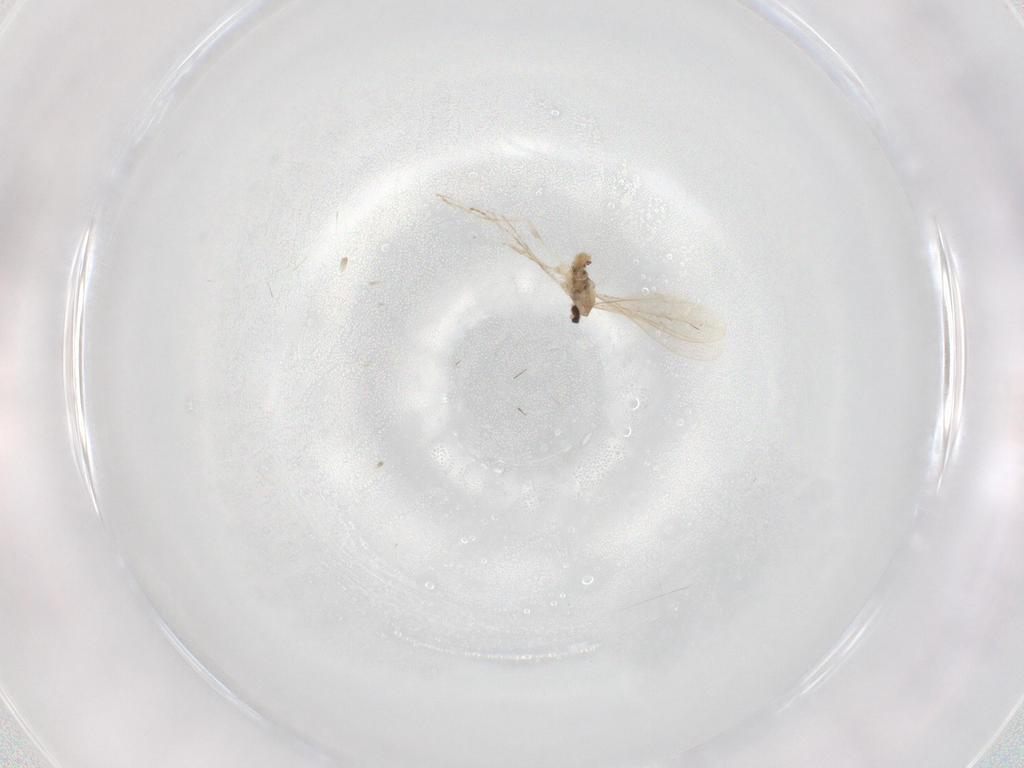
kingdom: Animalia
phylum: Arthropoda
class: Insecta
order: Diptera
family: Cecidomyiidae
